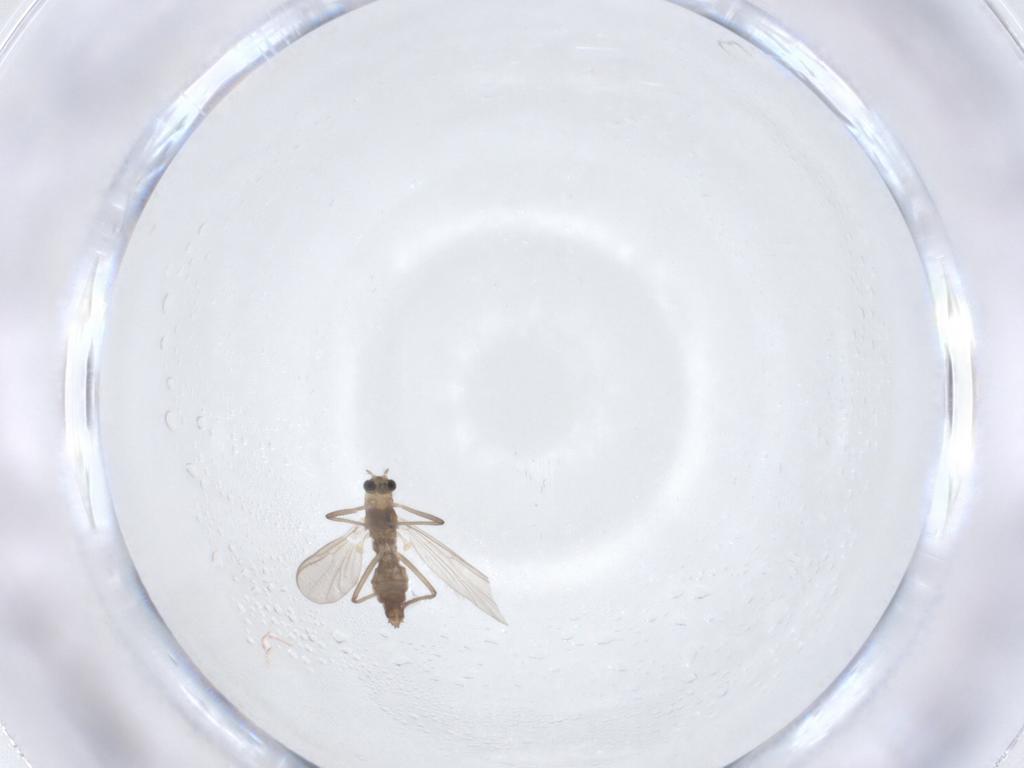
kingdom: Animalia
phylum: Arthropoda
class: Insecta
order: Diptera
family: Chironomidae
